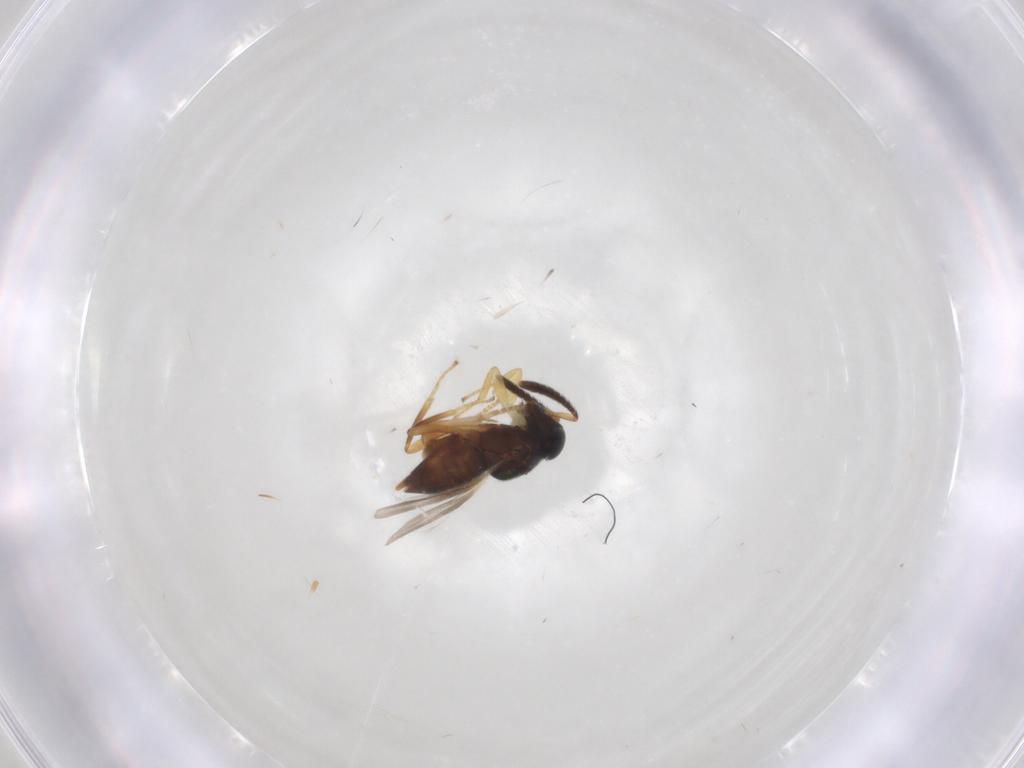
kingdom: Animalia
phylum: Arthropoda
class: Insecta
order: Hymenoptera
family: Encyrtidae
